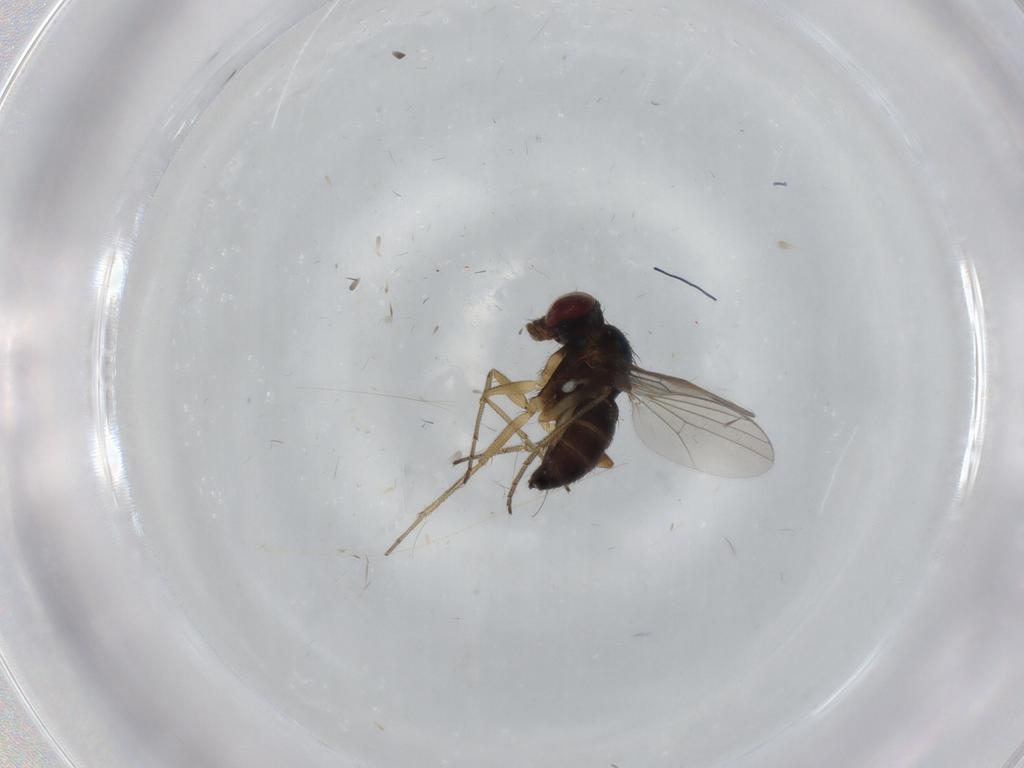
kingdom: Animalia
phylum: Arthropoda
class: Insecta
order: Diptera
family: Dolichopodidae
